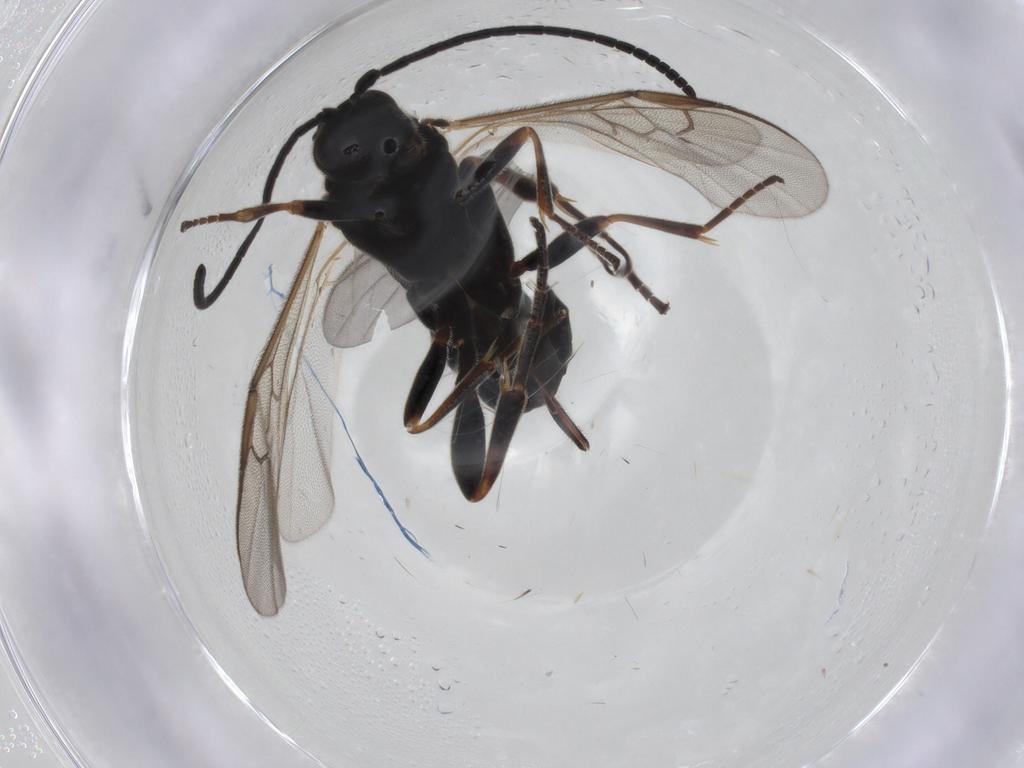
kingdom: Animalia
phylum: Arthropoda
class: Insecta
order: Hymenoptera
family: Braconidae
